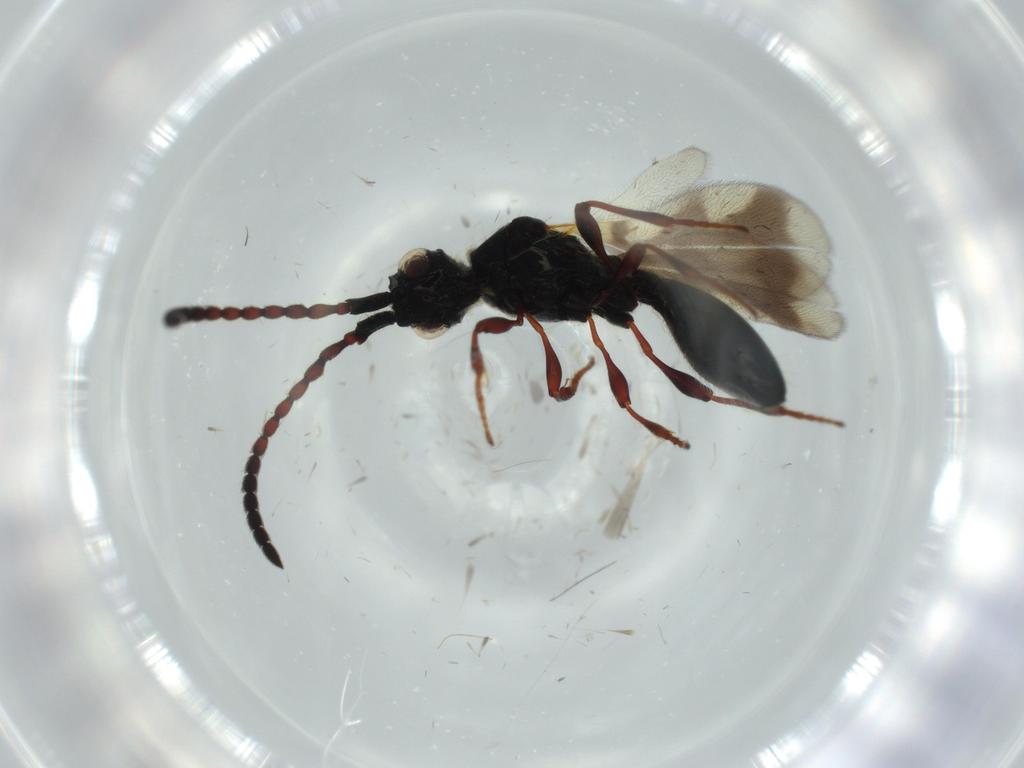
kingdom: Animalia
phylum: Arthropoda
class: Insecta
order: Hymenoptera
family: Diapriidae
